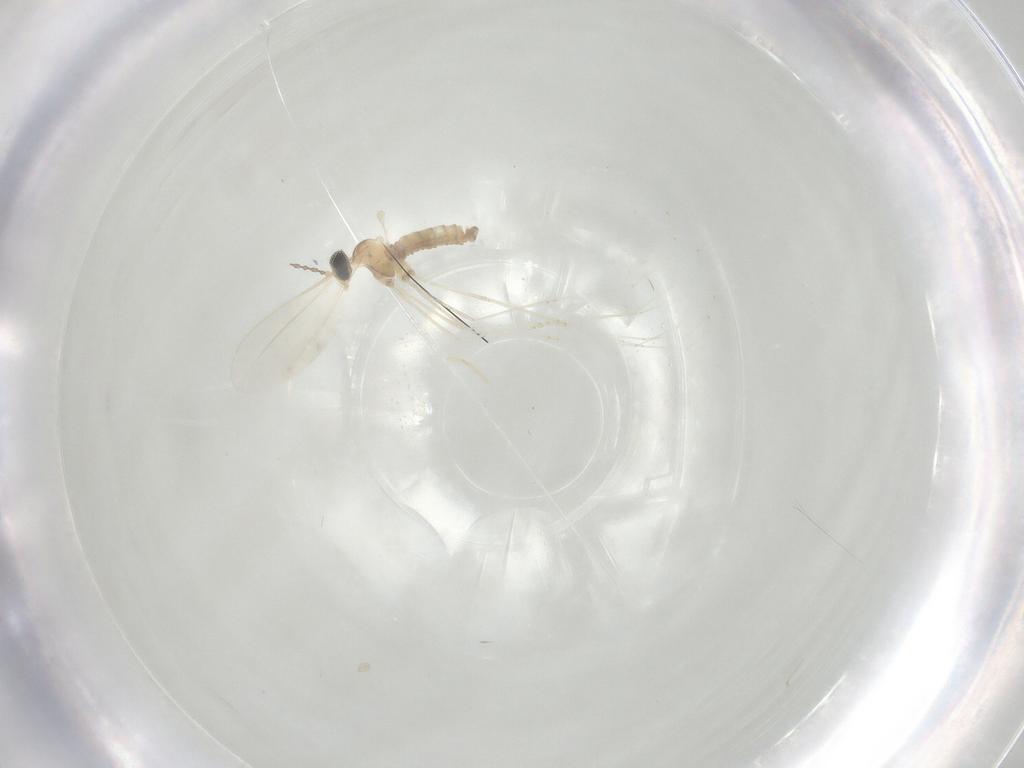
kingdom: Animalia
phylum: Arthropoda
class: Insecta
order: Diptera
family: Cecidomyiidae
